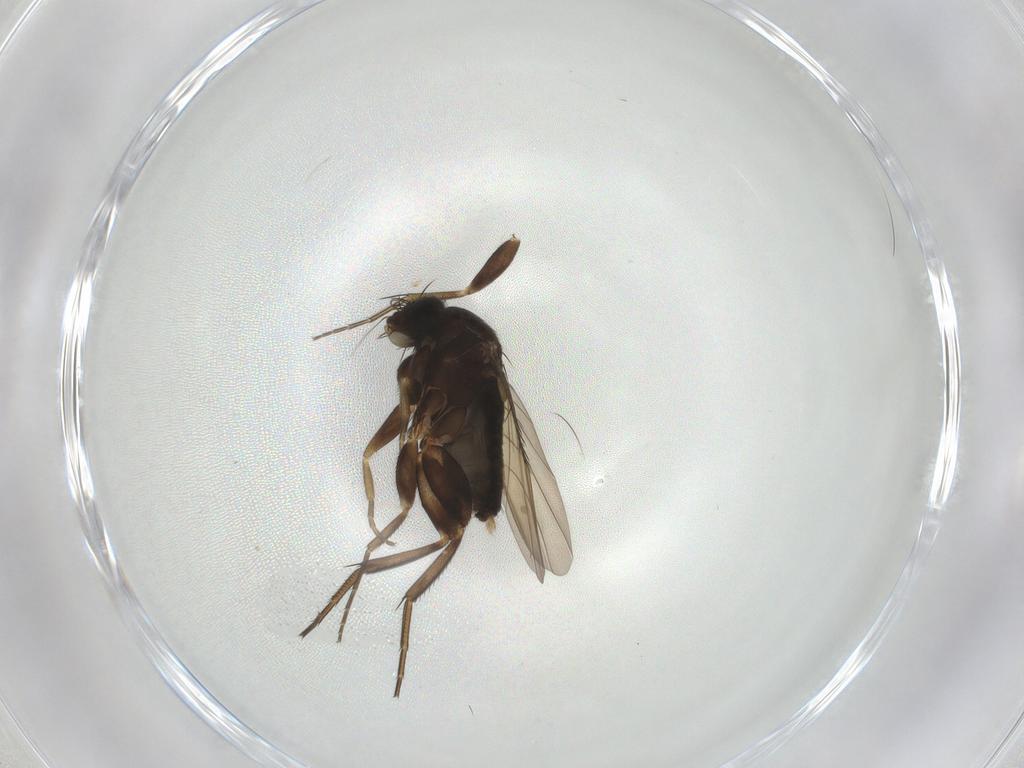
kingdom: Animalia
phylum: Arthropoda
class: Insecta
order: Diptera
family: Phoridae
